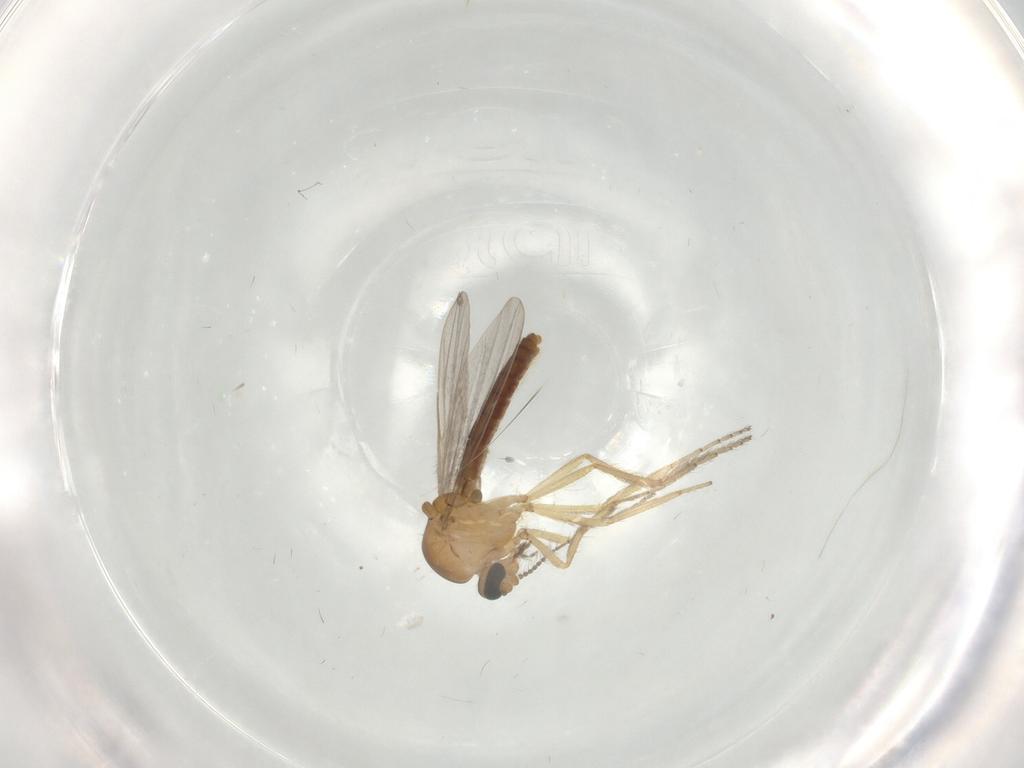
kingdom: Animalia
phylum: Arthropoda
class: Insecta
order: Diptera
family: Ceratopogonidae
